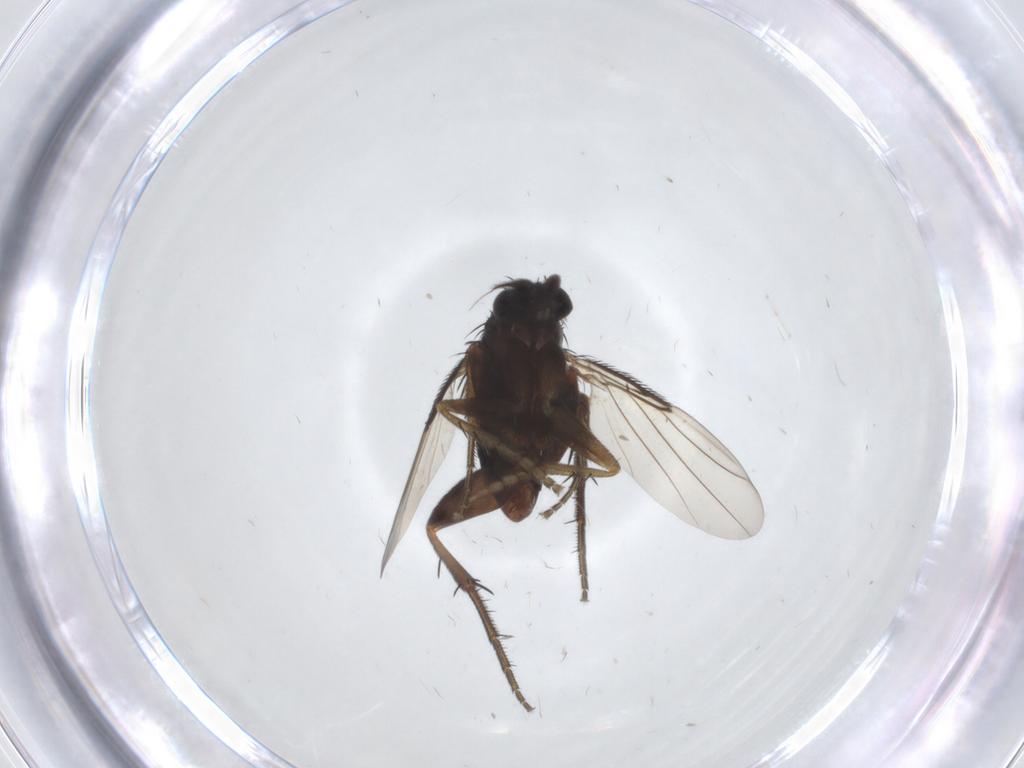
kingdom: Animalia
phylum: Arthropoda
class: Insecta
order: Diptera
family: Phoridae
